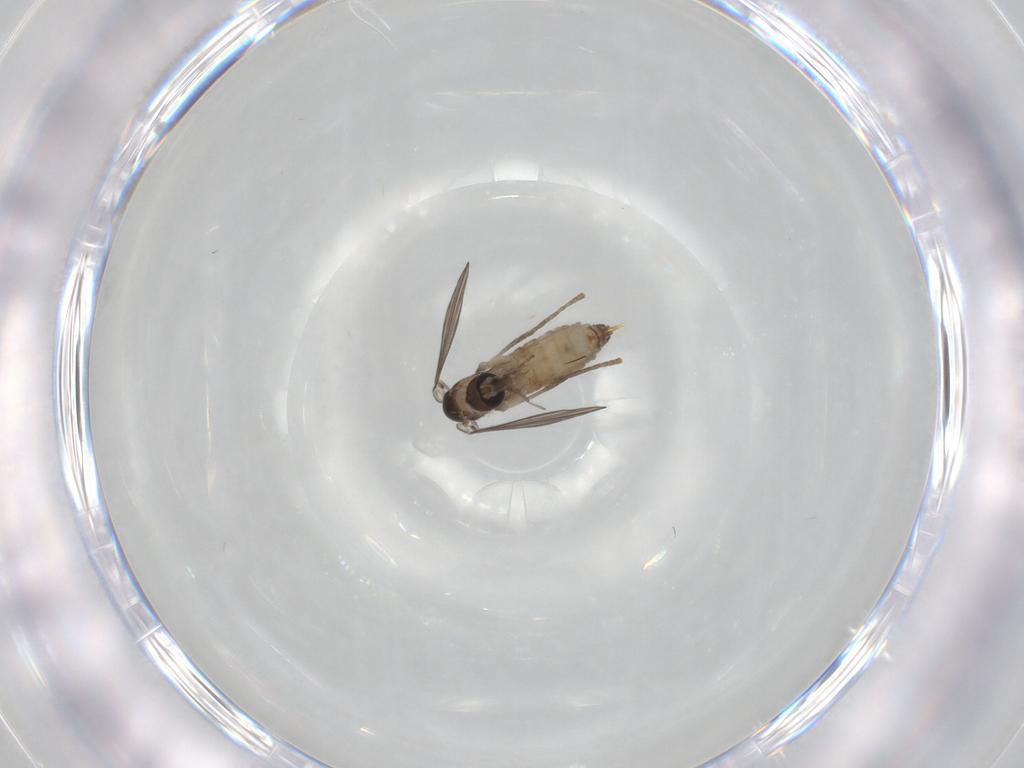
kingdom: Animalia
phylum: Arthropoda
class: Insecta
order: Diptera
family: Psychodidae
